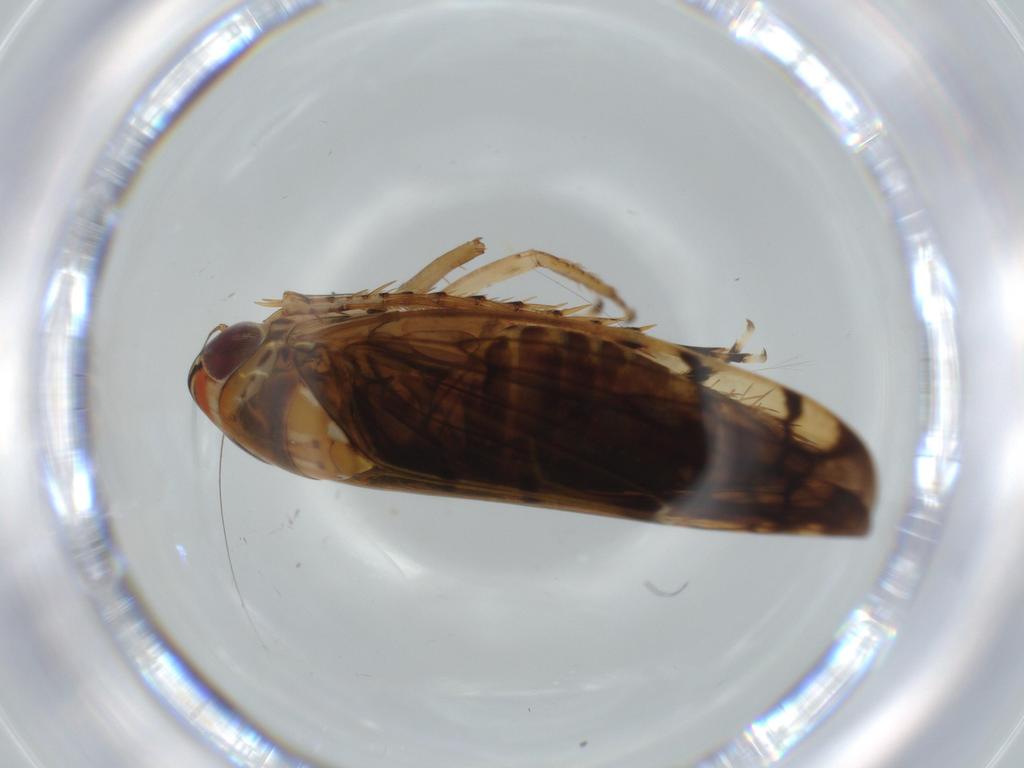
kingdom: Animalia
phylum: Arthropoda
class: Insecta
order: Hemiptera
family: Cicadellidae
